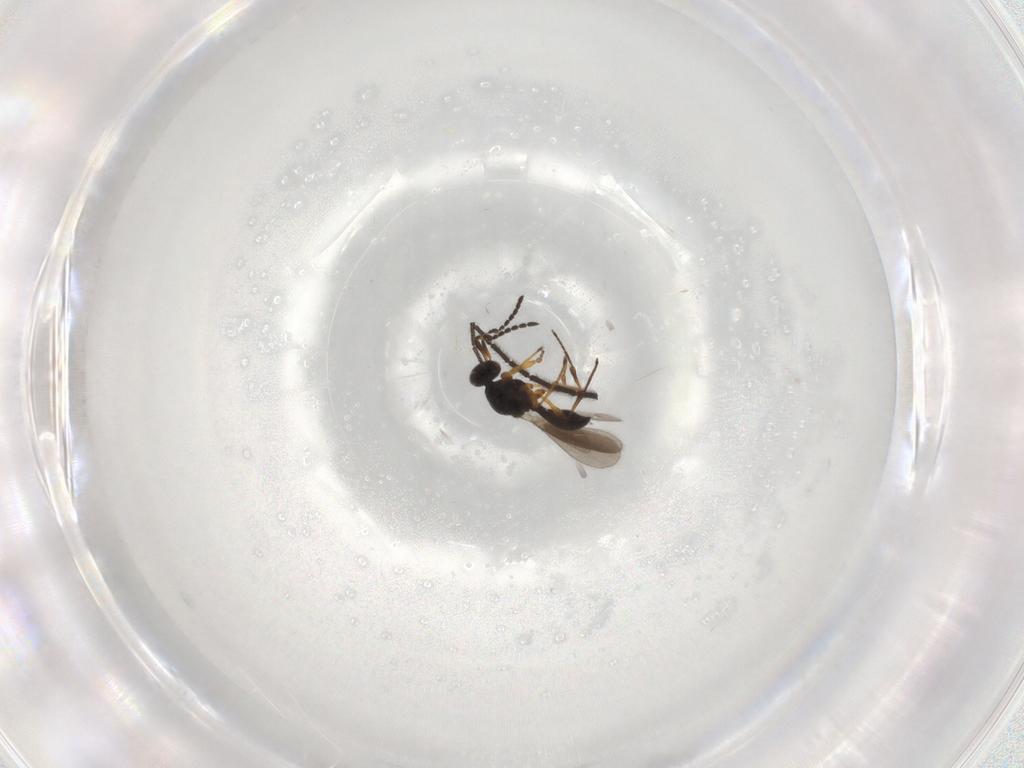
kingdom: Animalia
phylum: Arthropoda
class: Insecta
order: Hymenoptera
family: Platygastridae
